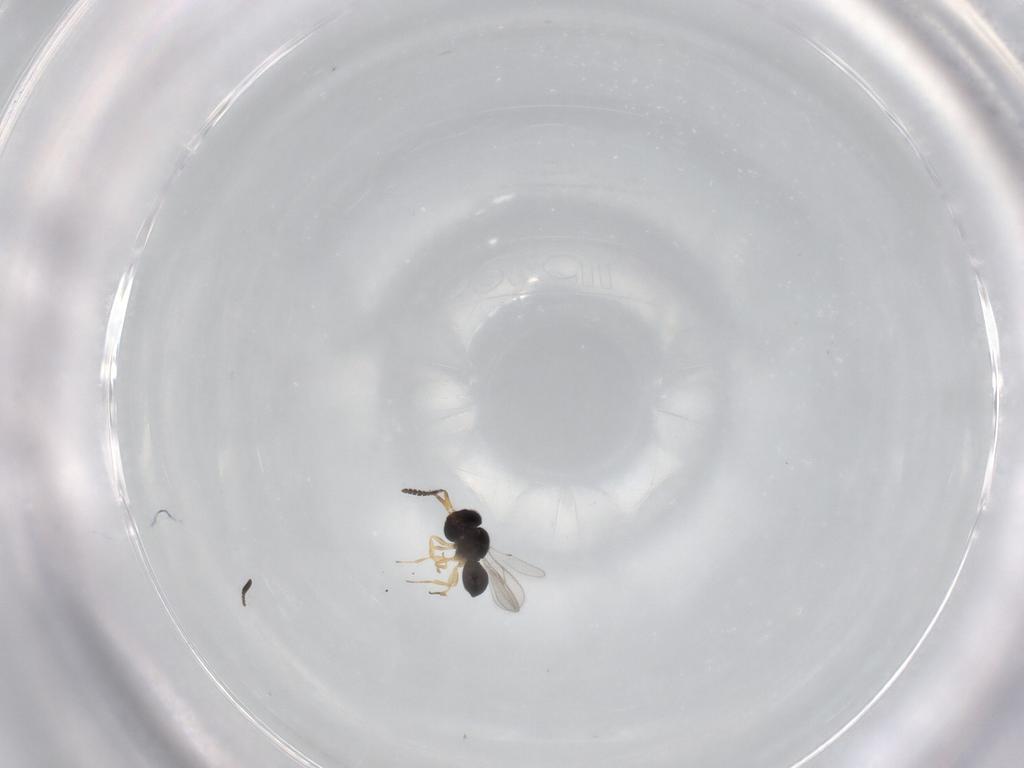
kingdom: Animalia
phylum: Arthropoda
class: Insecta
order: Hymenoptera
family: Scelionidae
